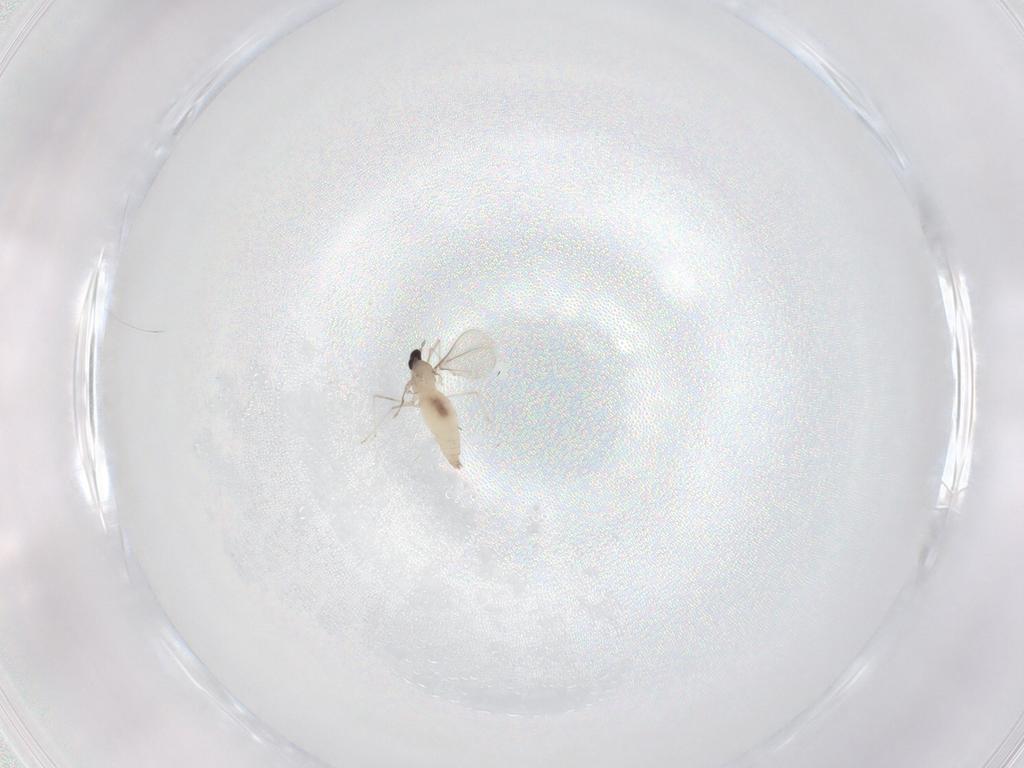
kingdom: Animalia
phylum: Arthropoda
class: Insecta
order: Diptera
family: Cecidomyiidae
